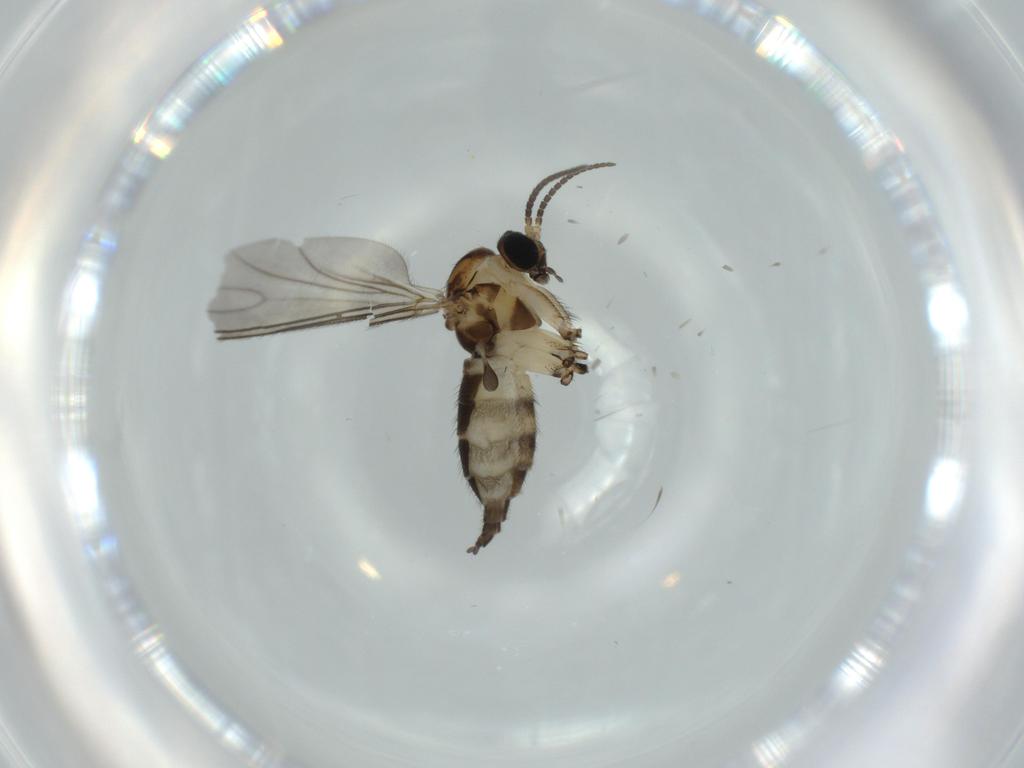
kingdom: Animalia
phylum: Arthropoda
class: Insecta
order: Diptera
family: Sciaridae
